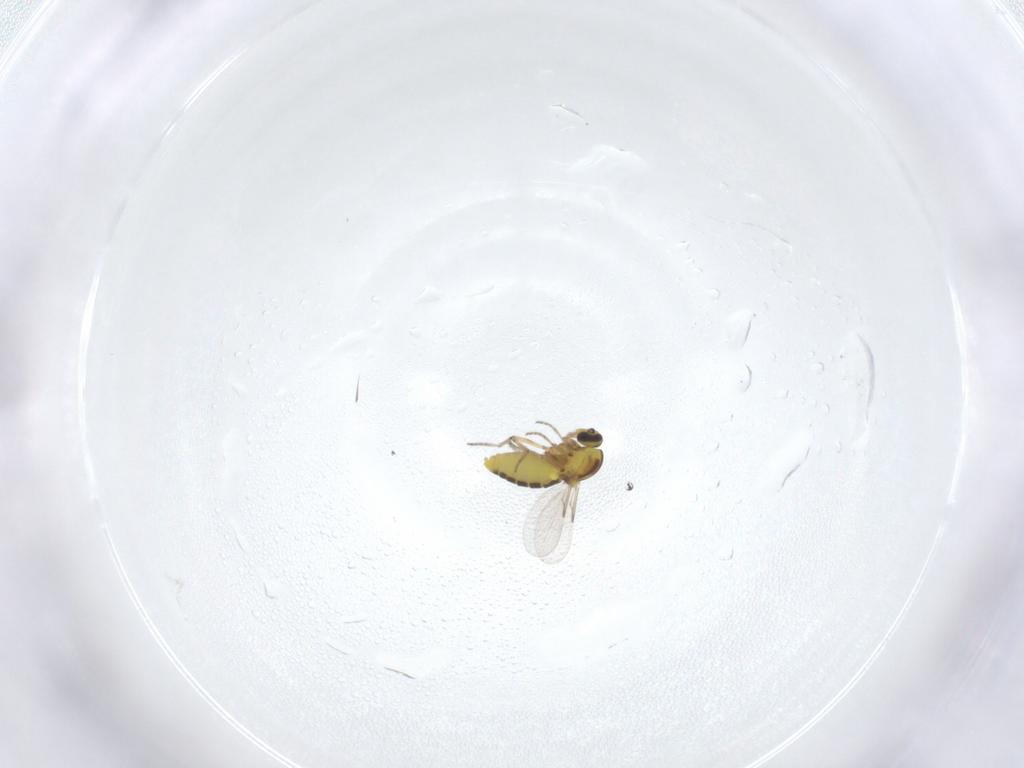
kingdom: Animalia
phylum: Arthropoda
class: Insecta
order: Diptera
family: Ceratopogonidae
